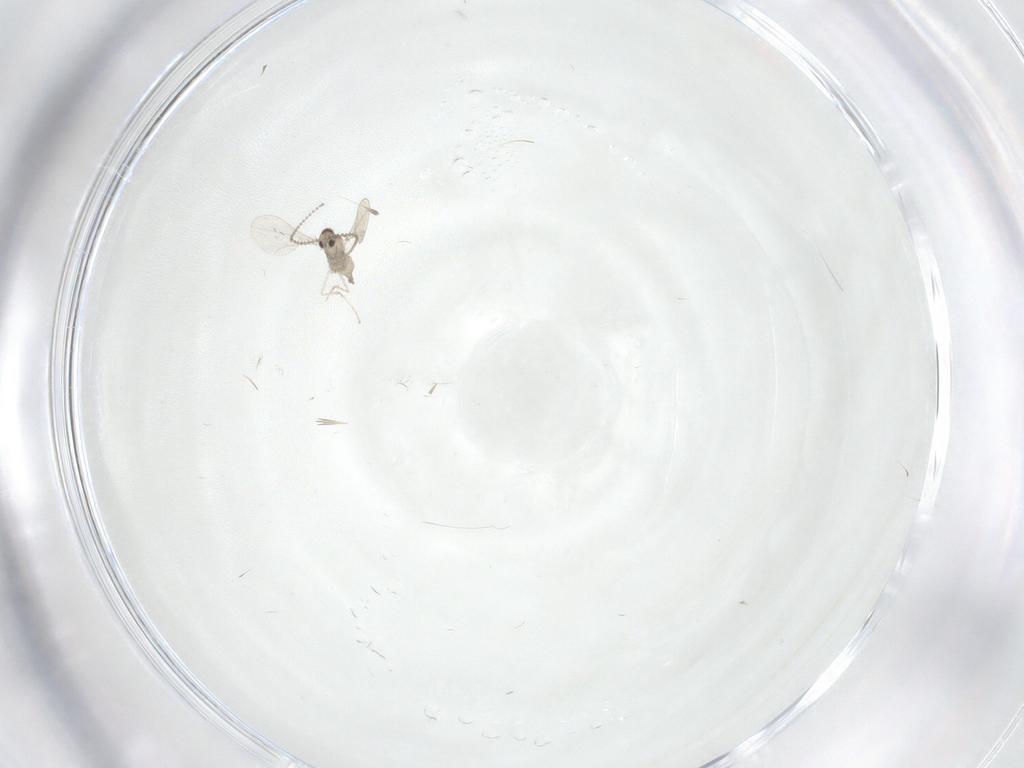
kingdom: Animalia
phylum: Arthropoda
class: Insecta
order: Diptera
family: Drosophilidae
